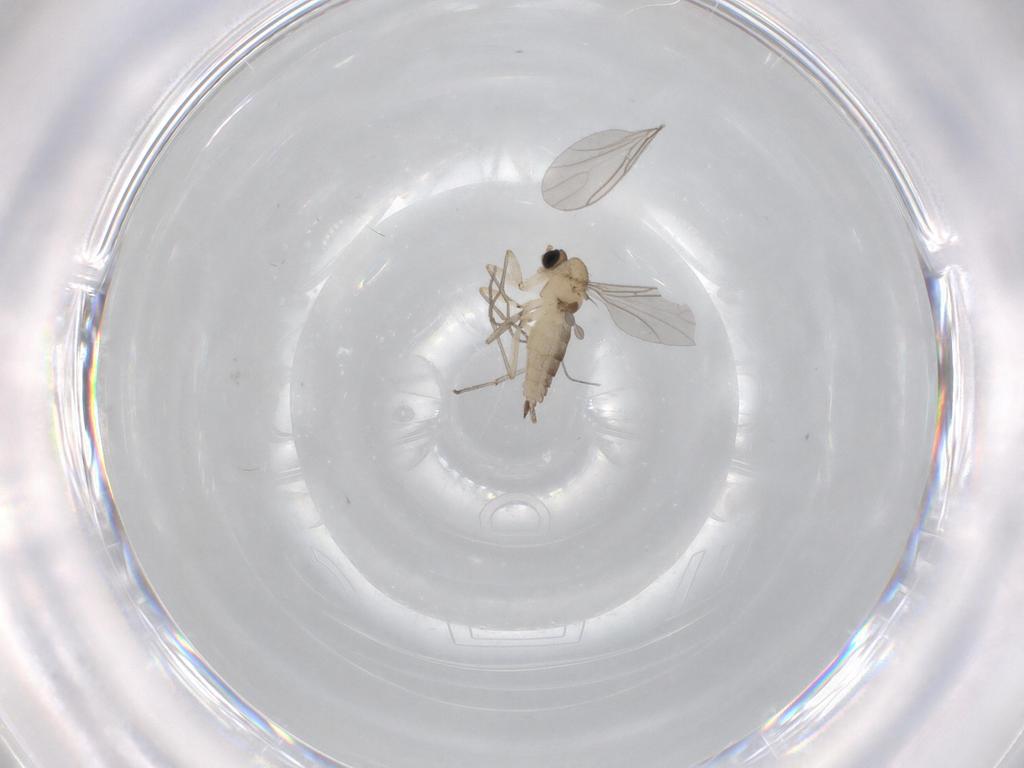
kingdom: Animalia
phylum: Arthropoda
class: Insecta
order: Diptera
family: Sciaridae
